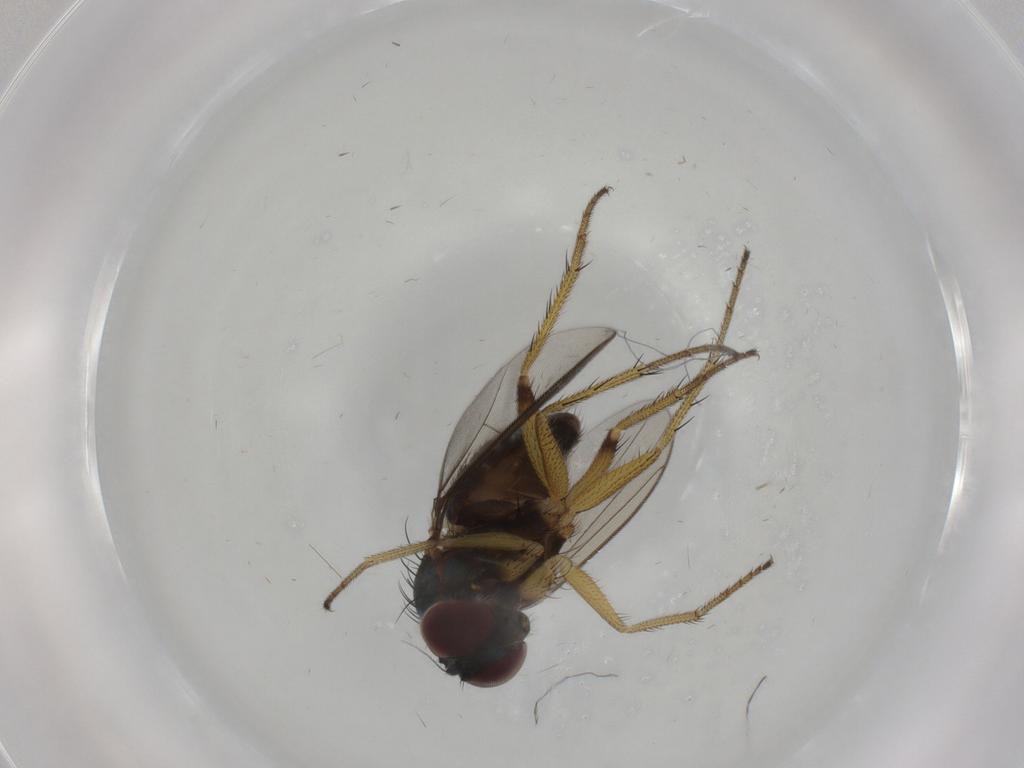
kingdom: Animalia
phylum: Arthropoda
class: Insecta
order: Diptera
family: Dolichopodidae
